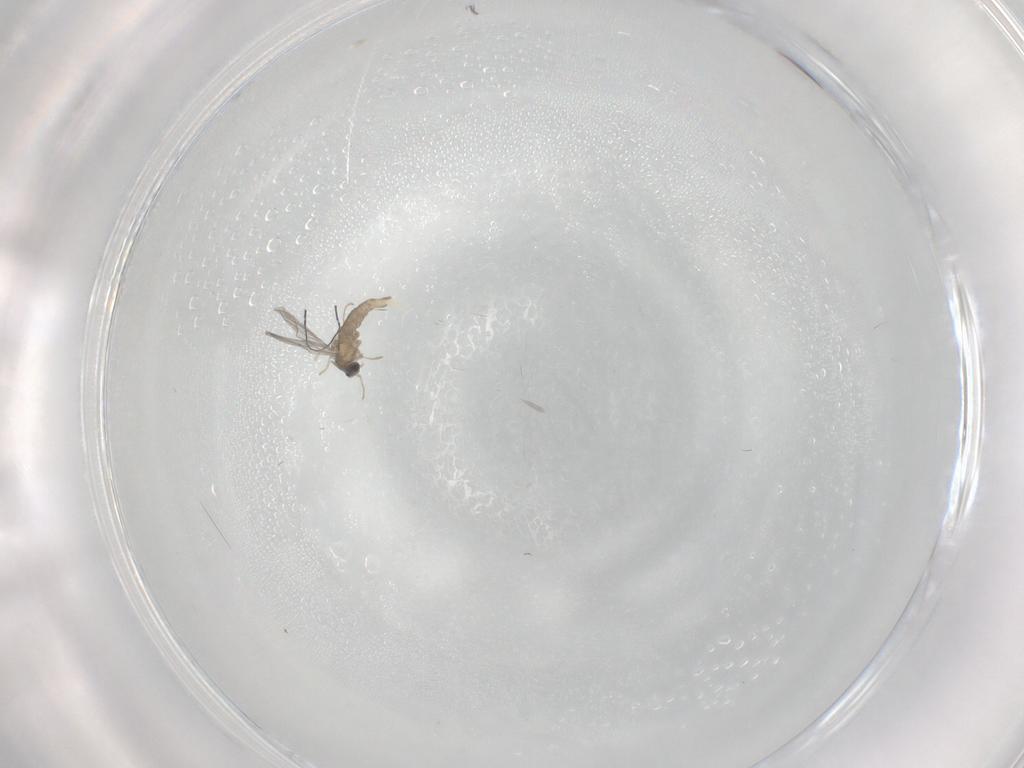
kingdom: Animalia
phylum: Arthropoda
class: Insecta
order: Diptera
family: Cecidomyiidae
